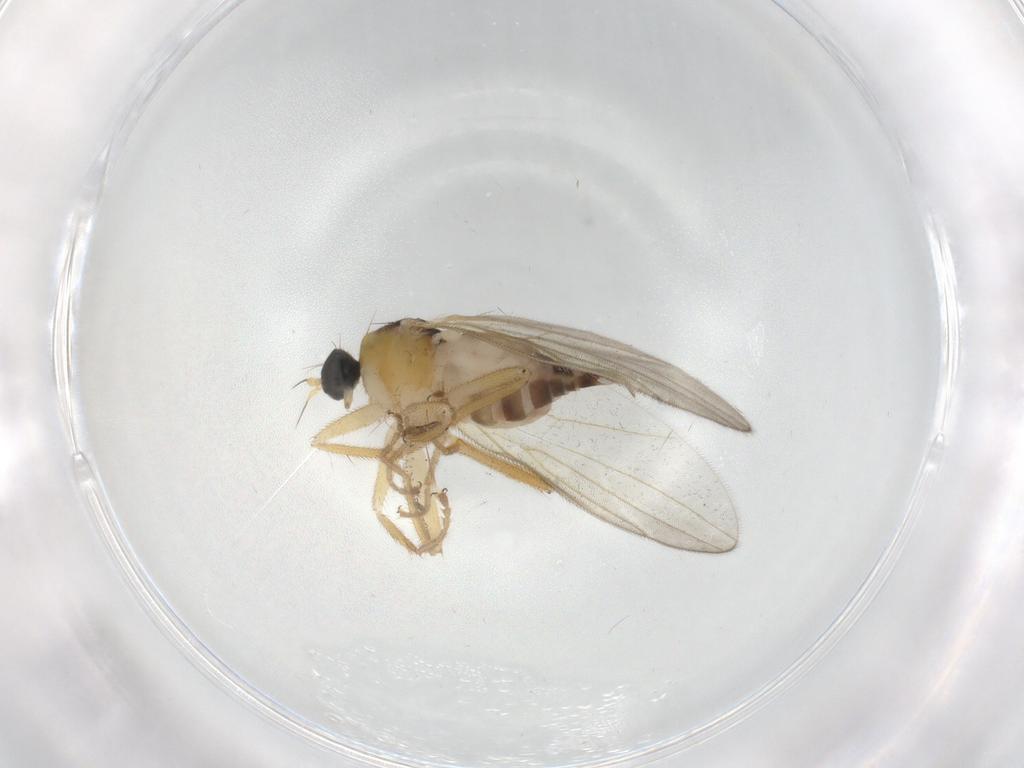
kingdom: Animalia
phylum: Arthropoda
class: Insecta
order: Diptera
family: Hybotidae
